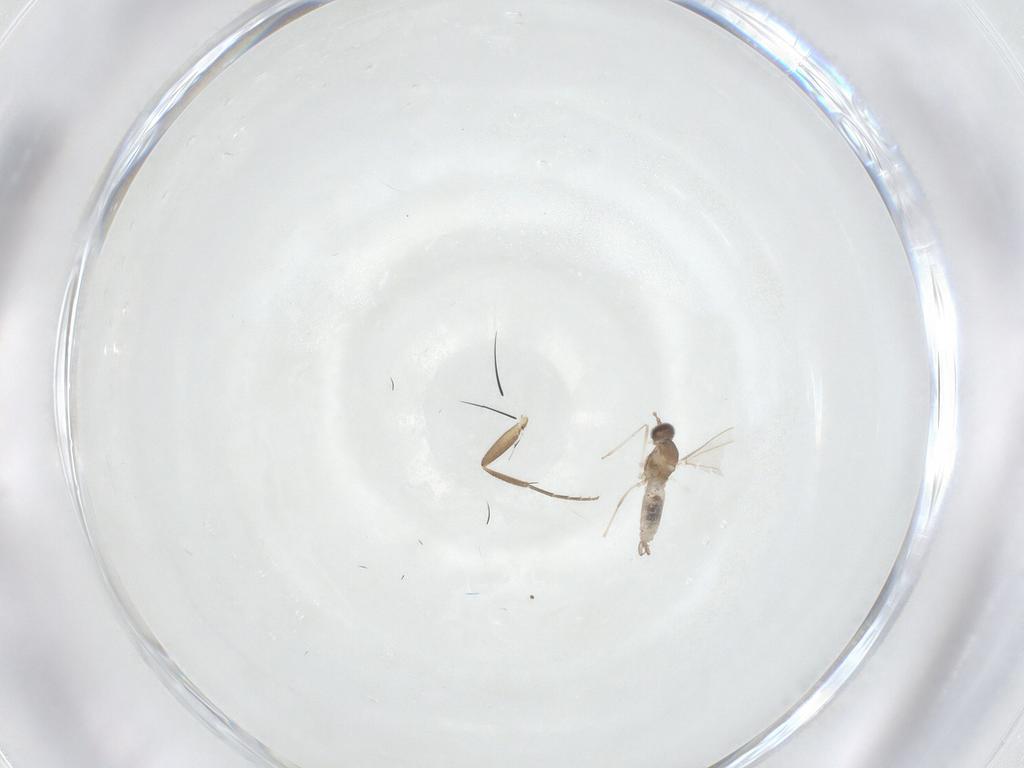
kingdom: Animalia
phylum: Arthropoda
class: Insecta
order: Diptera
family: Cecidomyiidae
